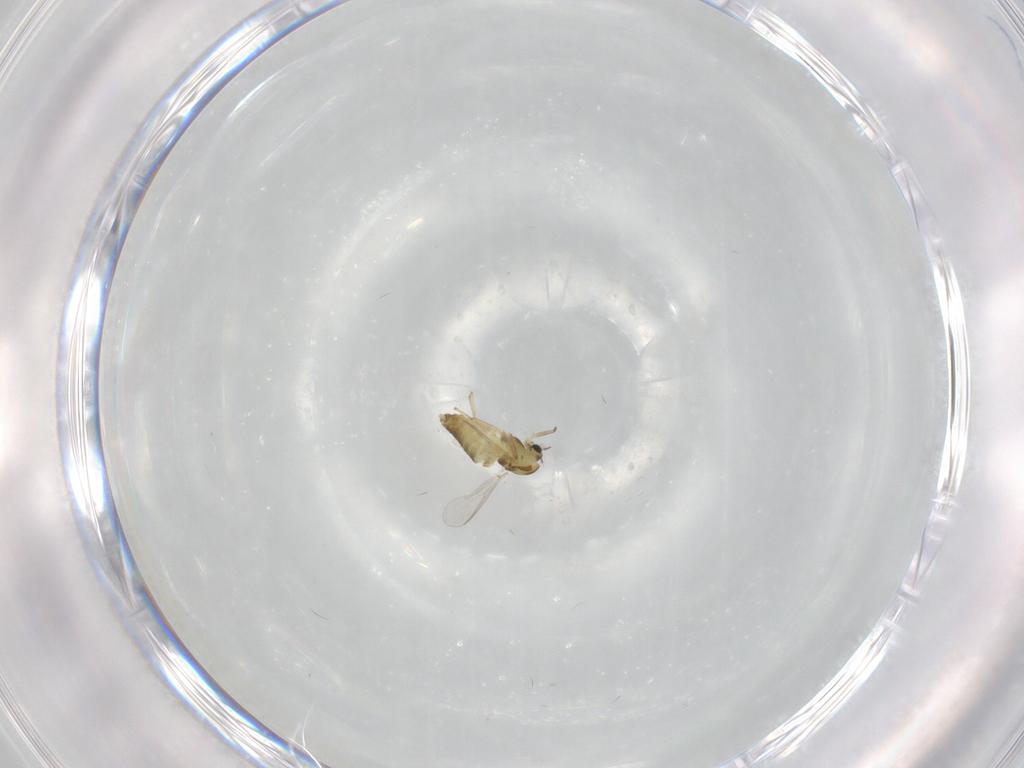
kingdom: Animalia
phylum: Arthropoda
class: Insecta
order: Diptera
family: Chironomidae
